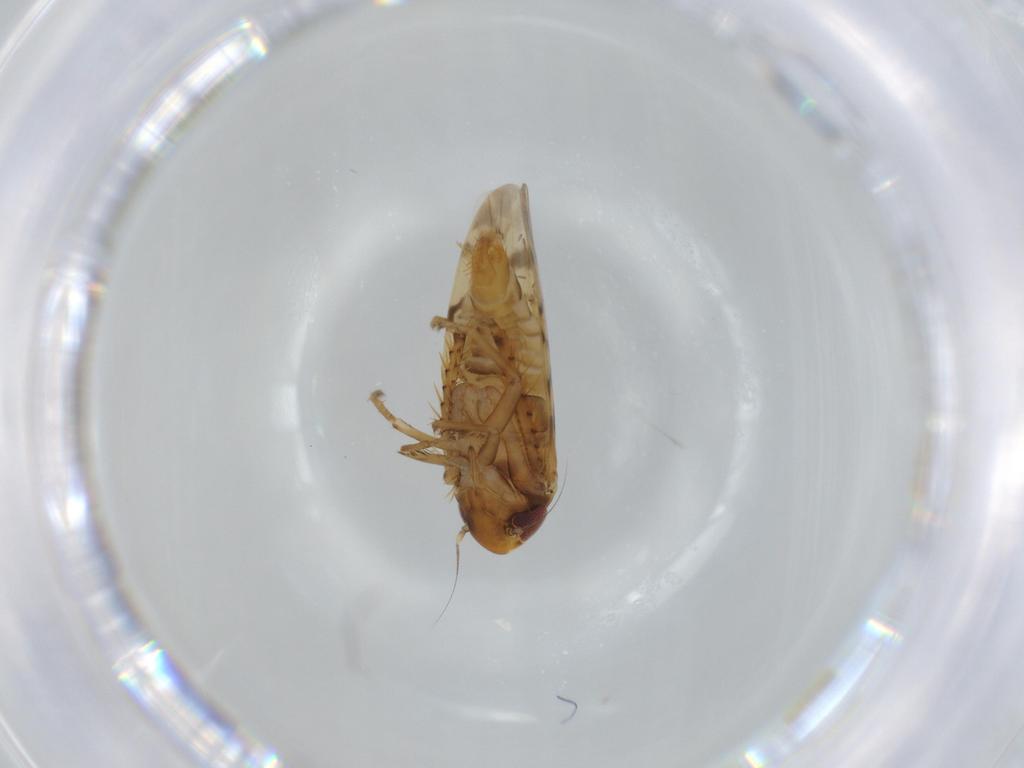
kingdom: Animalia
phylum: Arthropoda
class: Insecta
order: Hemiptera
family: Cicadellidae
